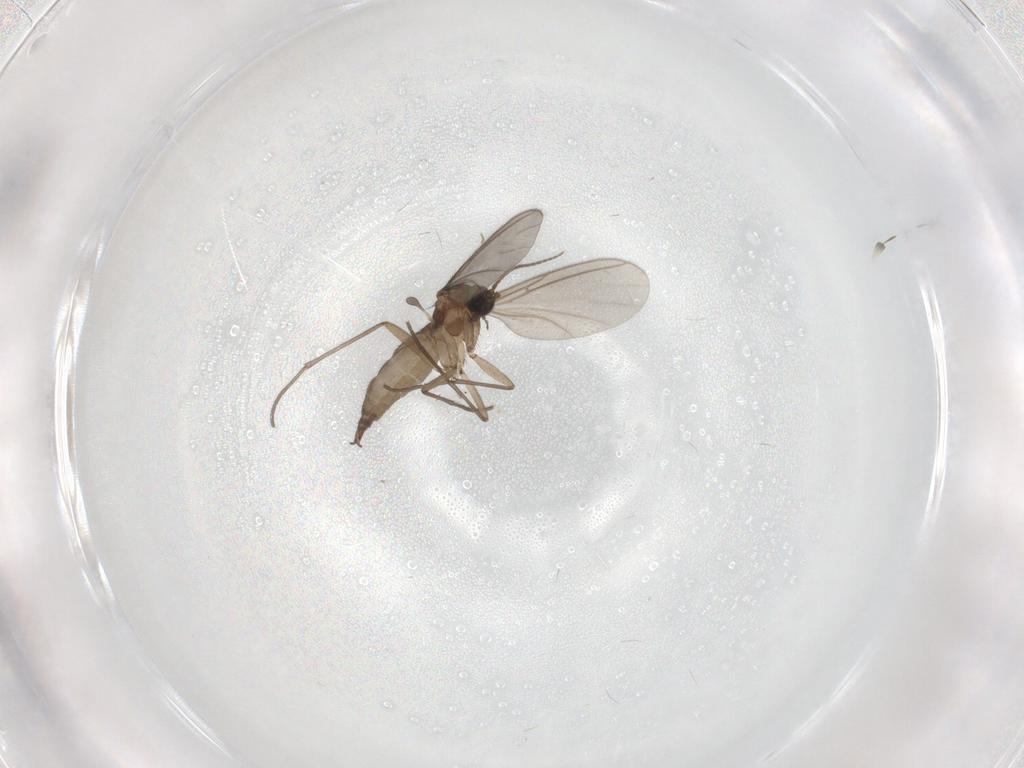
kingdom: Animalia
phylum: Arthropoda
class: Insecta
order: Diptera
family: Sciaridae
